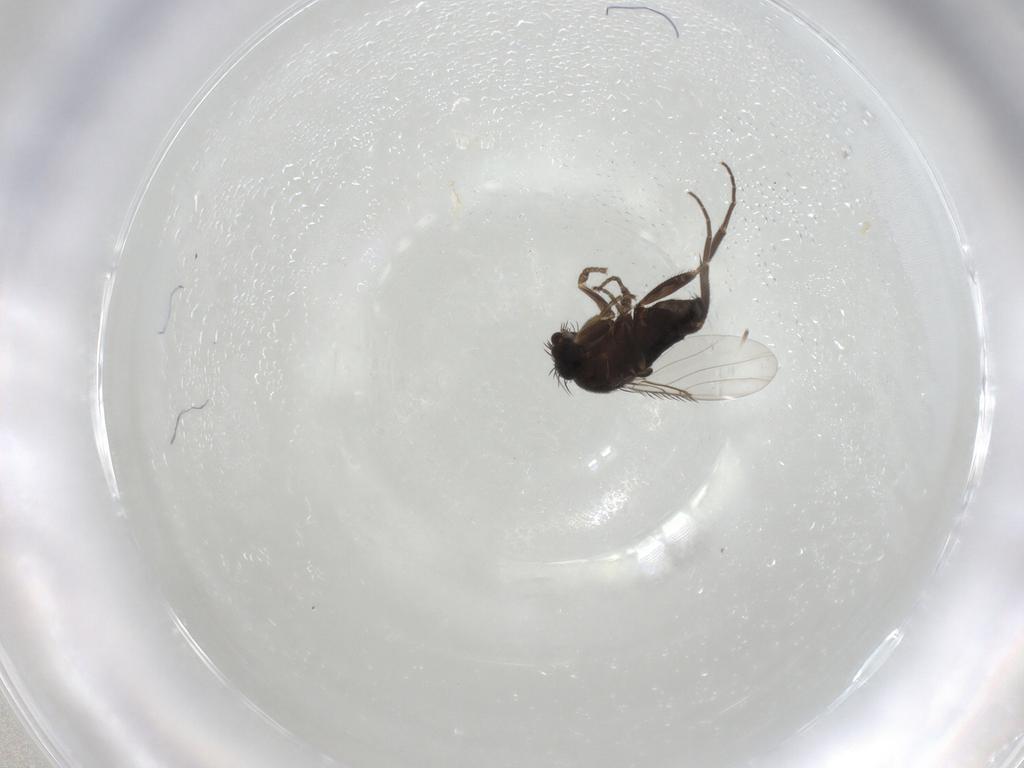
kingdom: Animalia
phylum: Arthropoda
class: Insecta
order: Diptera
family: Phoridae
